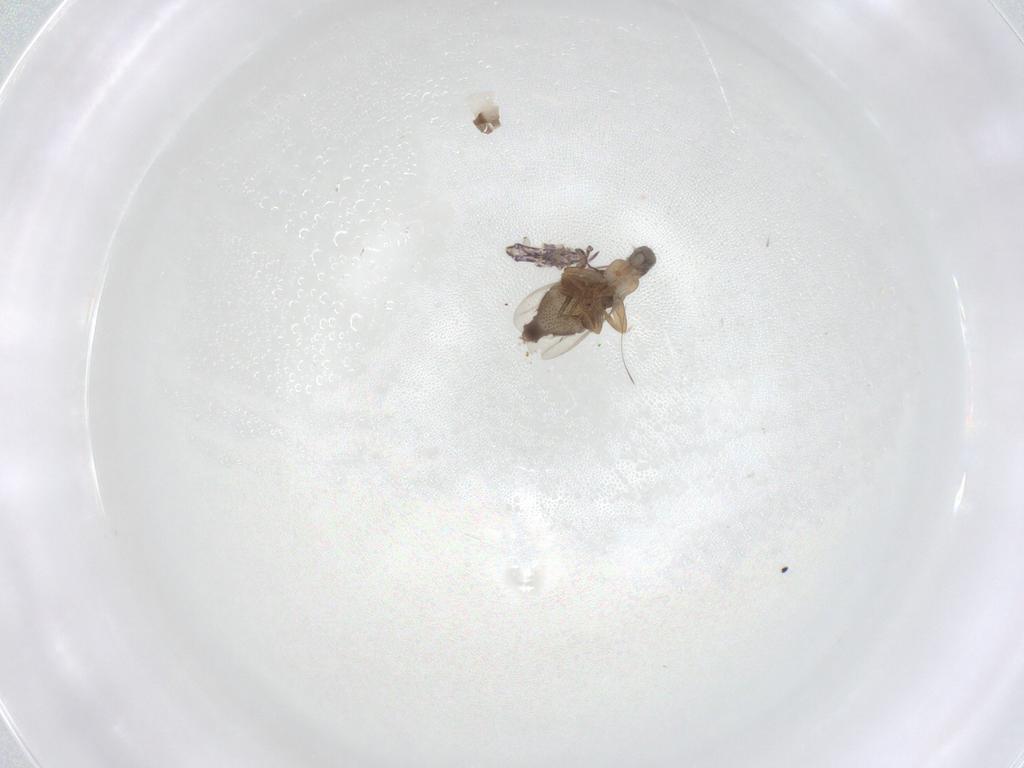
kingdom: Animalia
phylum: Arthropoda
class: Collembola
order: Entomobryomorpha
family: Entomobryidae
